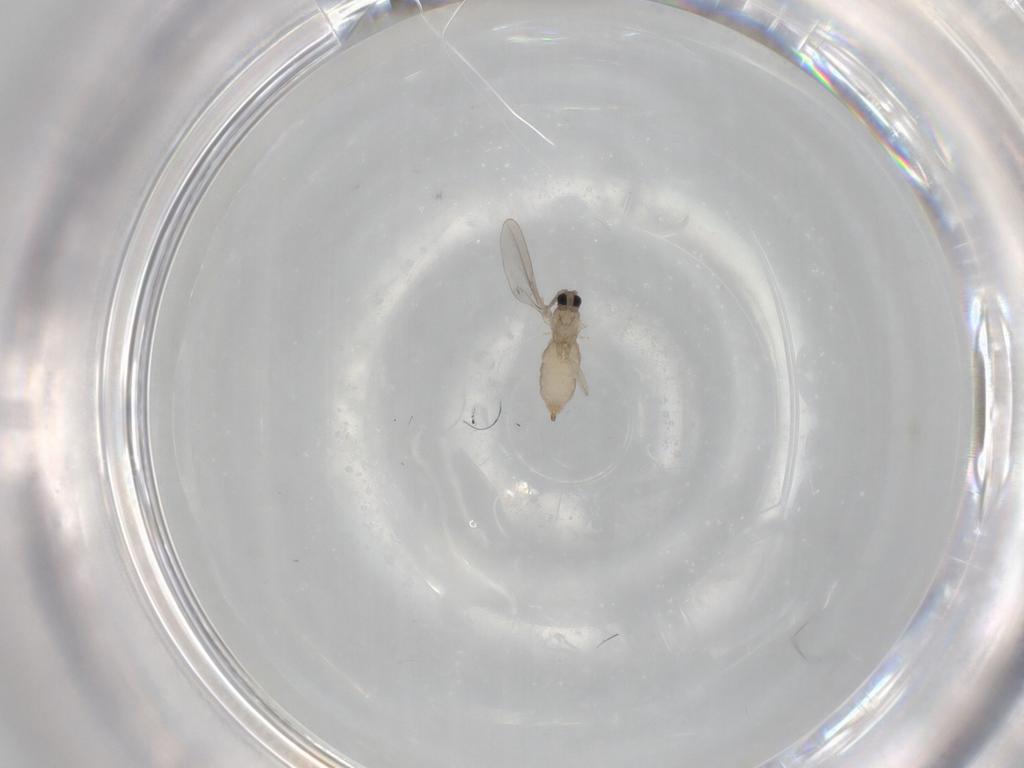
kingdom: Animalia
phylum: Arthropoda
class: Insecta
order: Diptera
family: Cecidomyiidae
